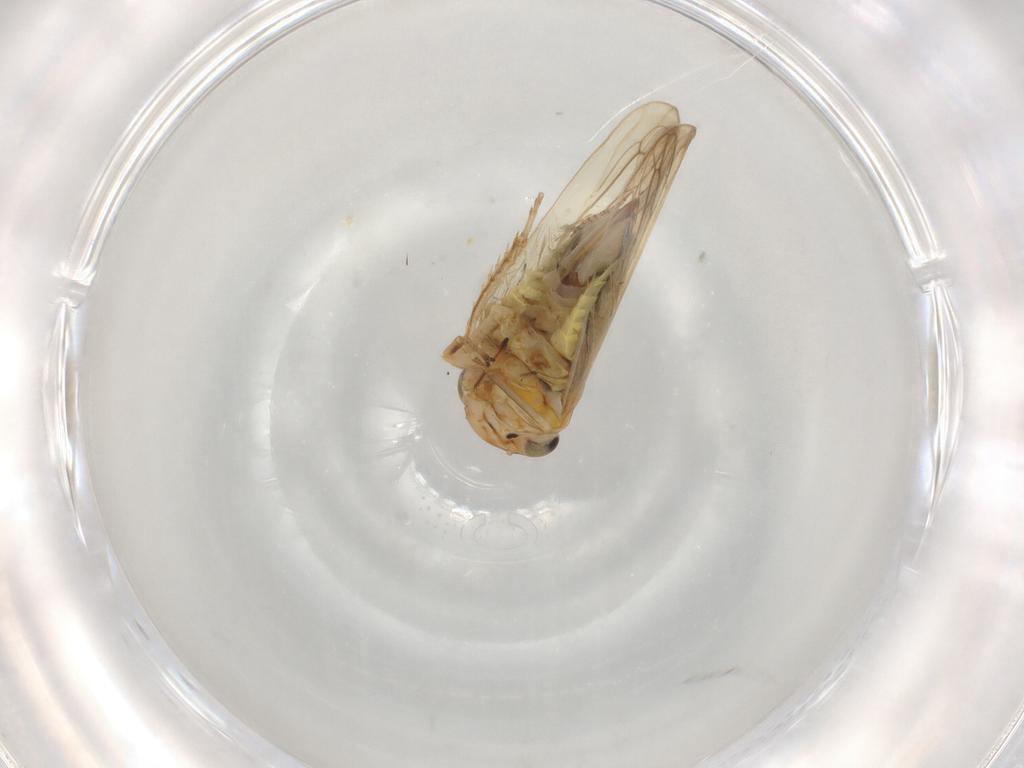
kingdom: Animalia
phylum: Arthropoda
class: Insecta
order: Hemiptera
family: Cicadellidae
